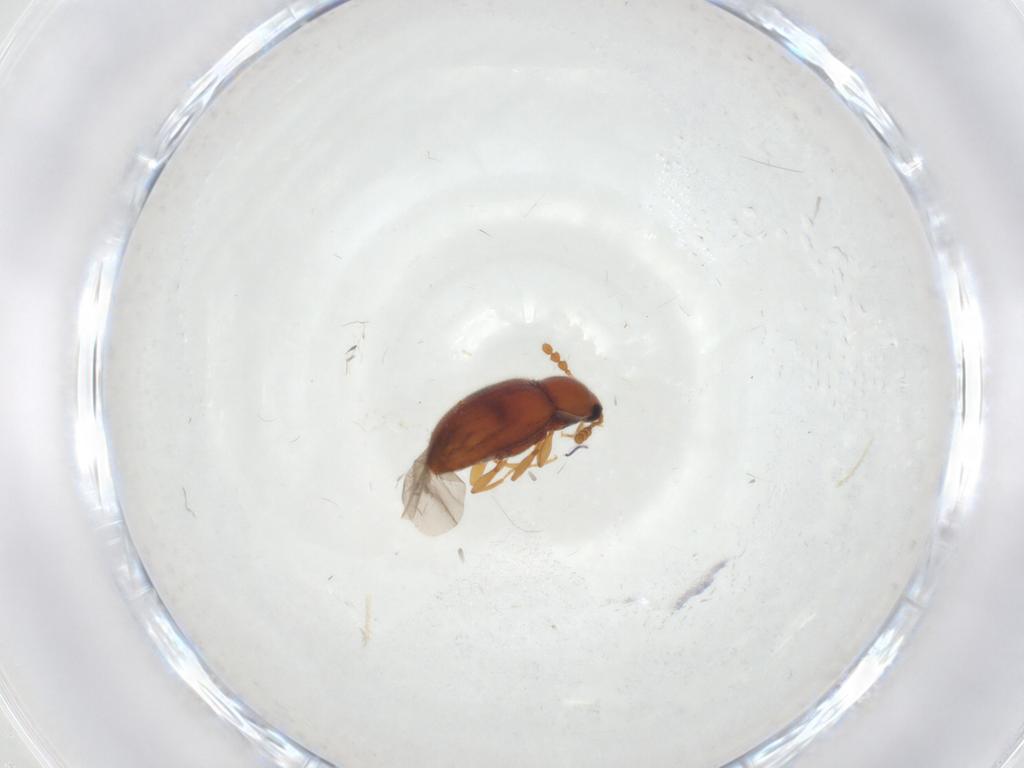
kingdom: Animalia
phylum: Arthropoda
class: Insecta
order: Coleoptera
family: Erotylidae
